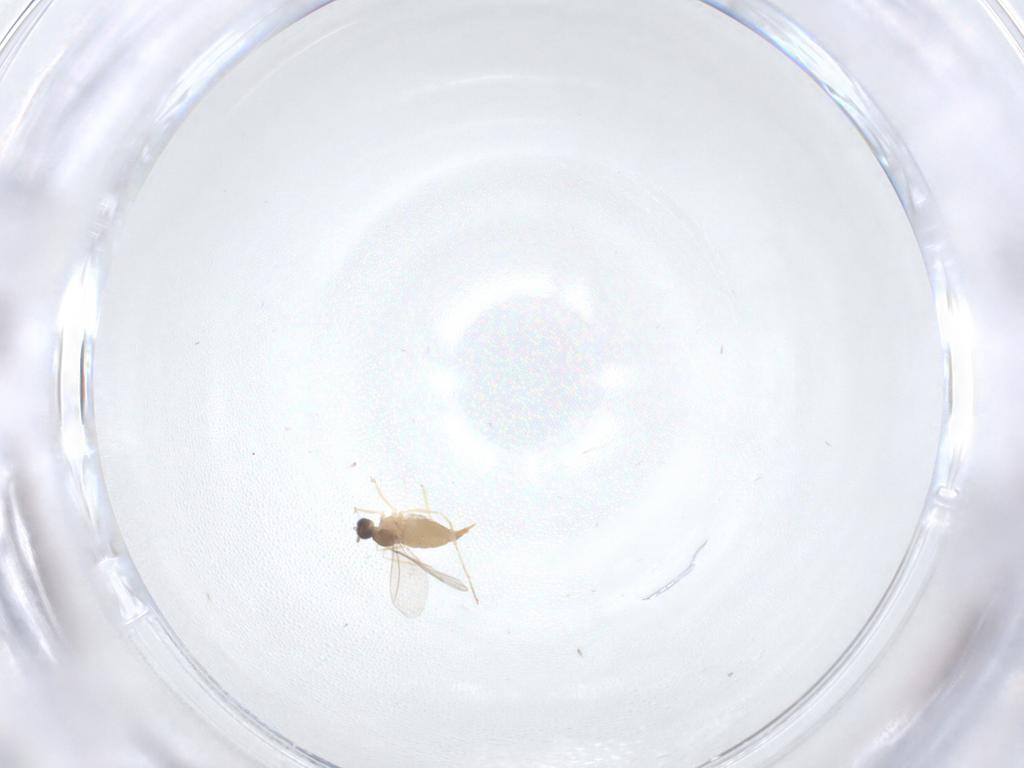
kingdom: Animalia
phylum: Arthropoda
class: Insecta
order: Diptera
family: Cecidomyiidae
